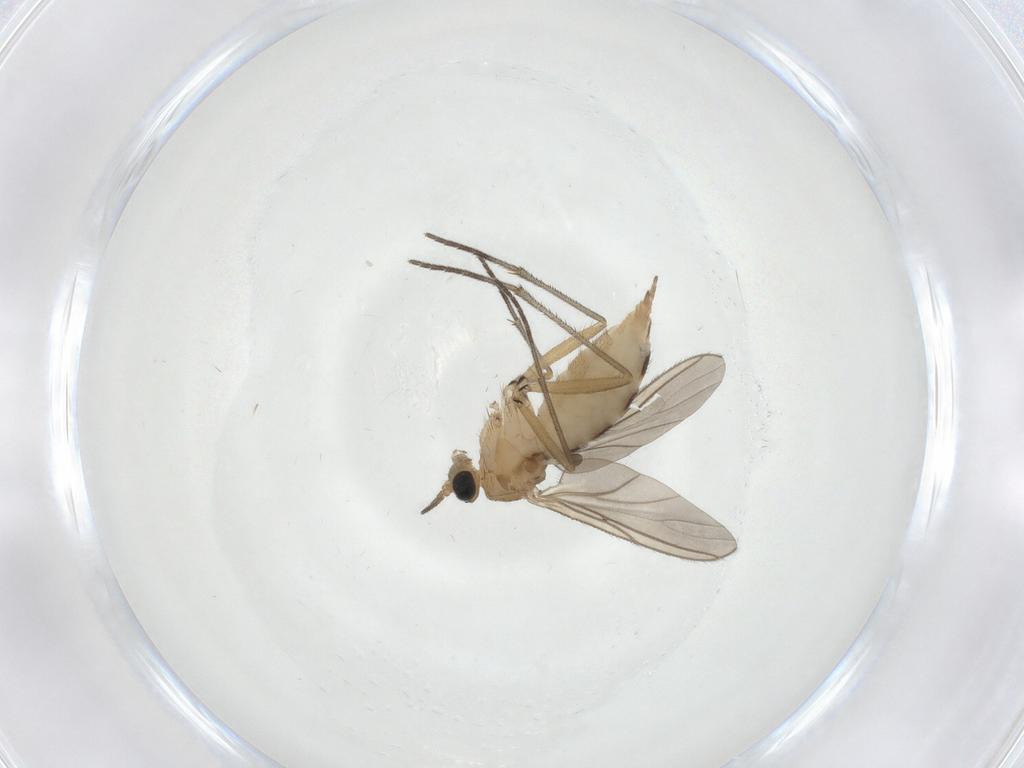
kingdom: Animalia
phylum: Arthropoda
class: Insecta
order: Diptera
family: Sciaridae
